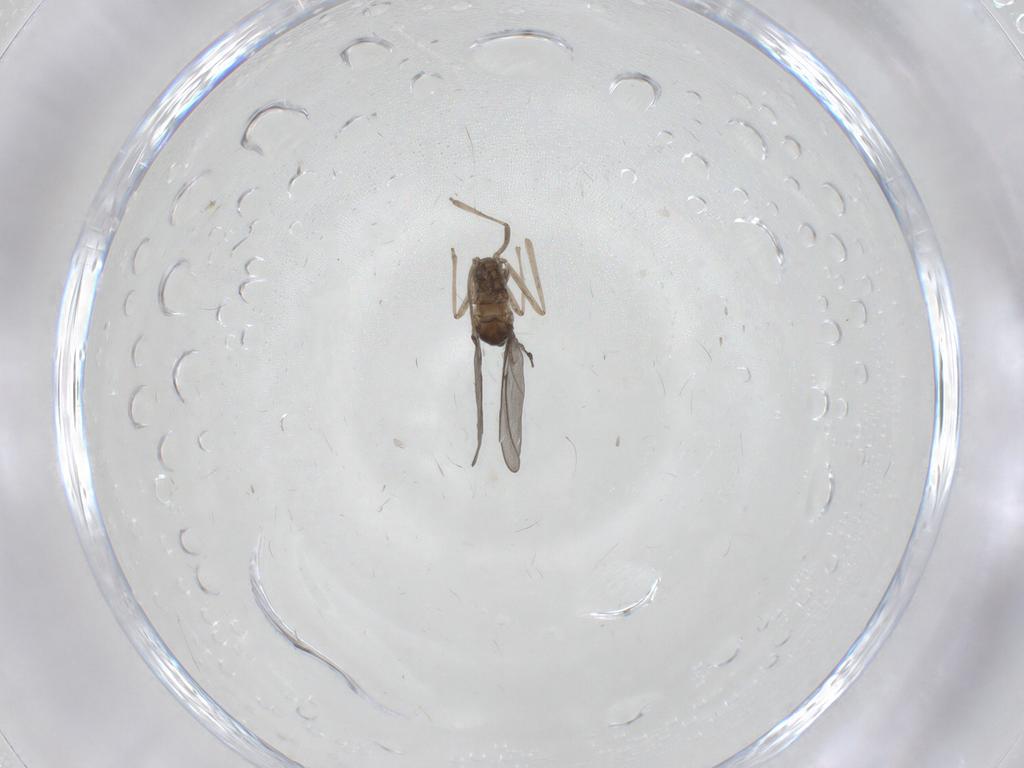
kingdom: Animalia
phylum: Arthropoda
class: Insecta
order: Diptera
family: Cecidomyiidae
